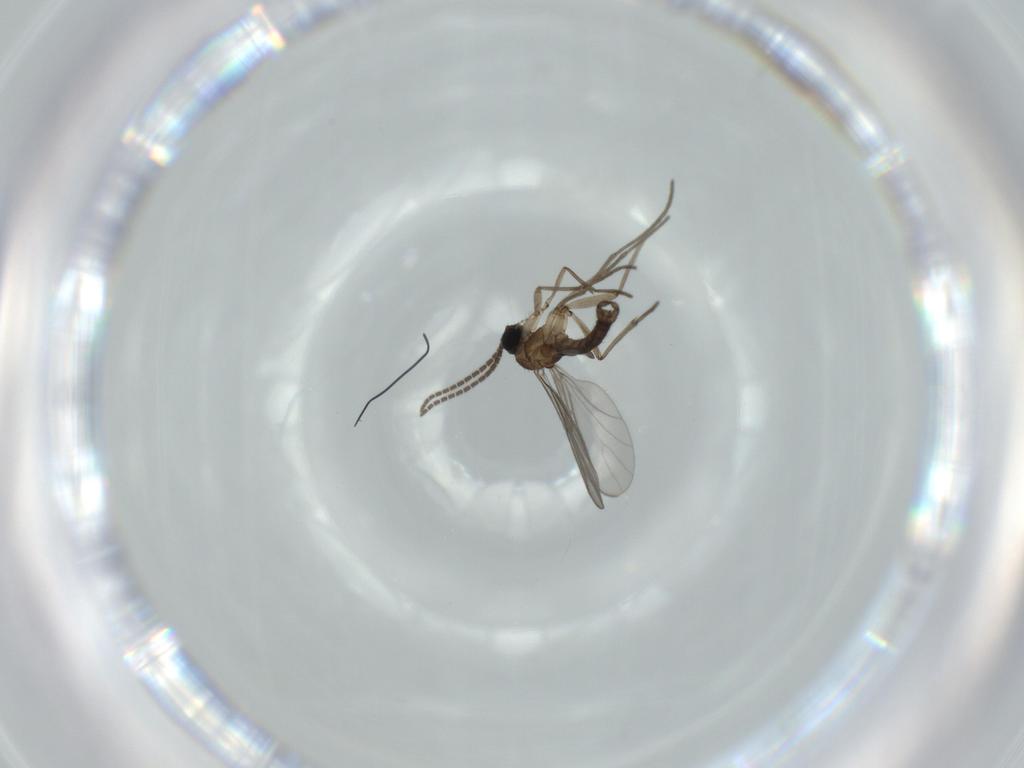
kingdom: Animalia
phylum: Arthropoda
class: Insecta
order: Diptera
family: Sciaridae
